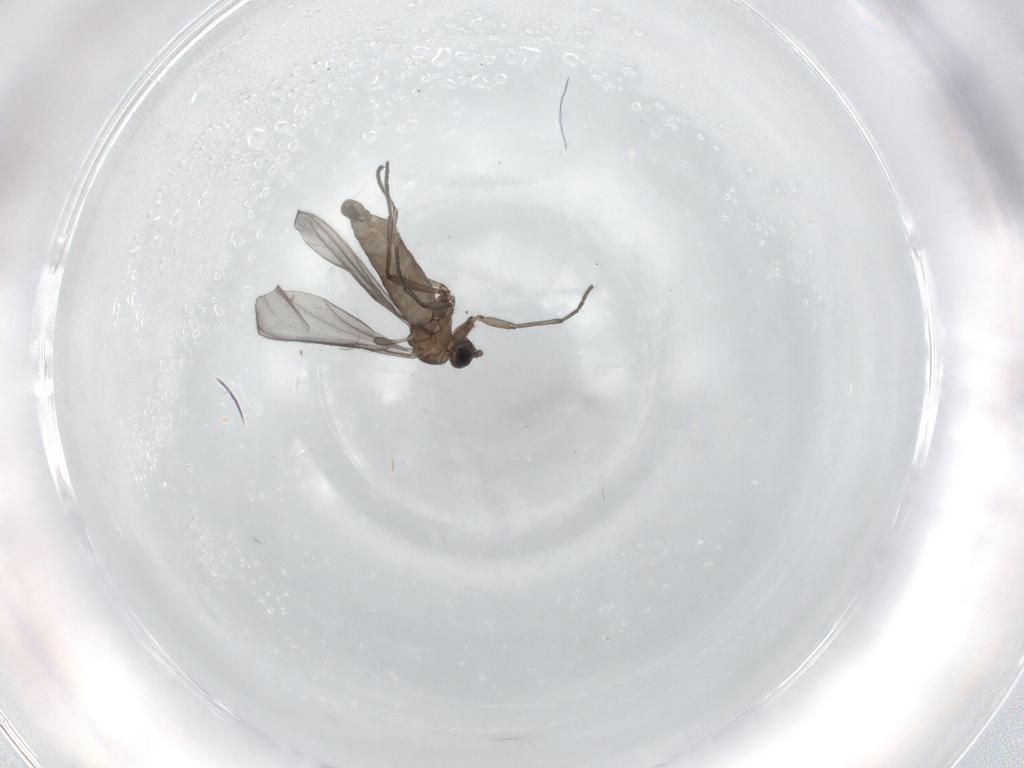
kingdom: Animalia
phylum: Arthropoda
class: Insecta
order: Diptera
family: Sciaridae
